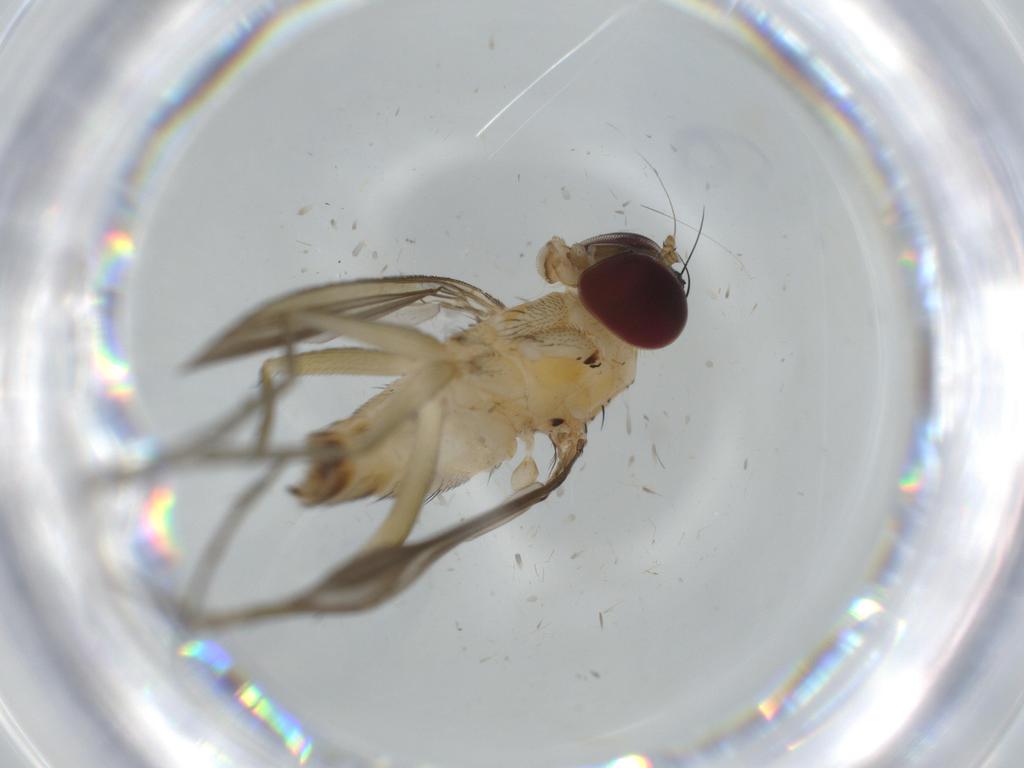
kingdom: Animalia
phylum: Arthropoda
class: Insecta
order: Diptera
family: Dolichopodidae
